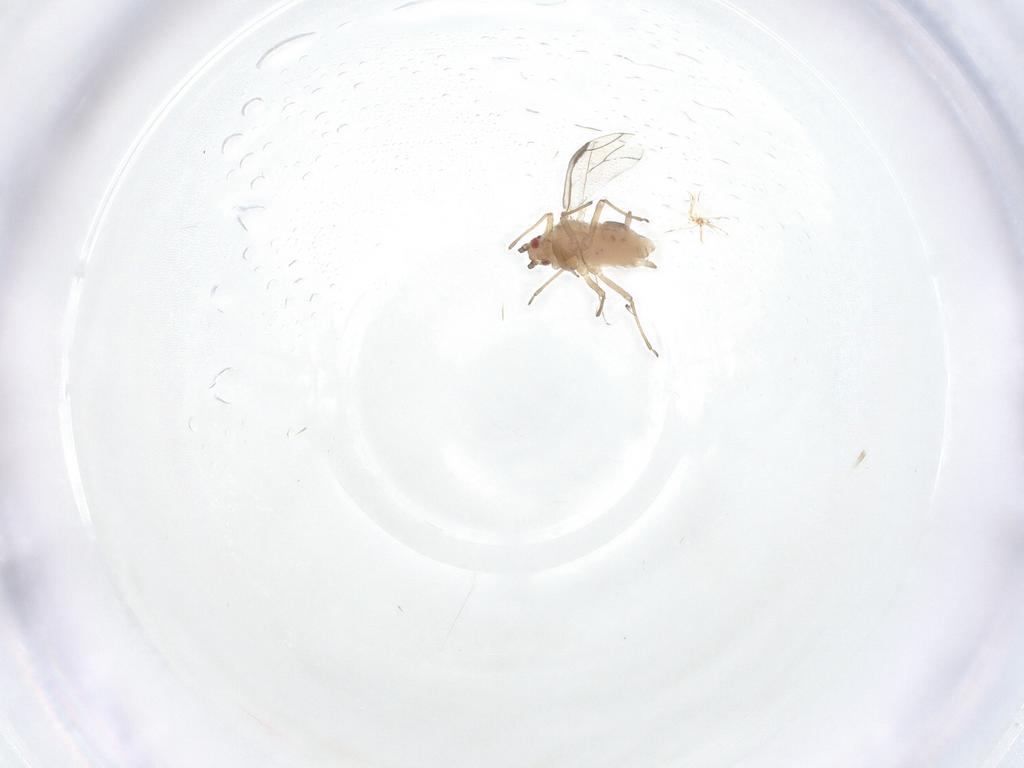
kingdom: Animalia
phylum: Arthropoda
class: Insecta
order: Hemiptera
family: Aphididae
